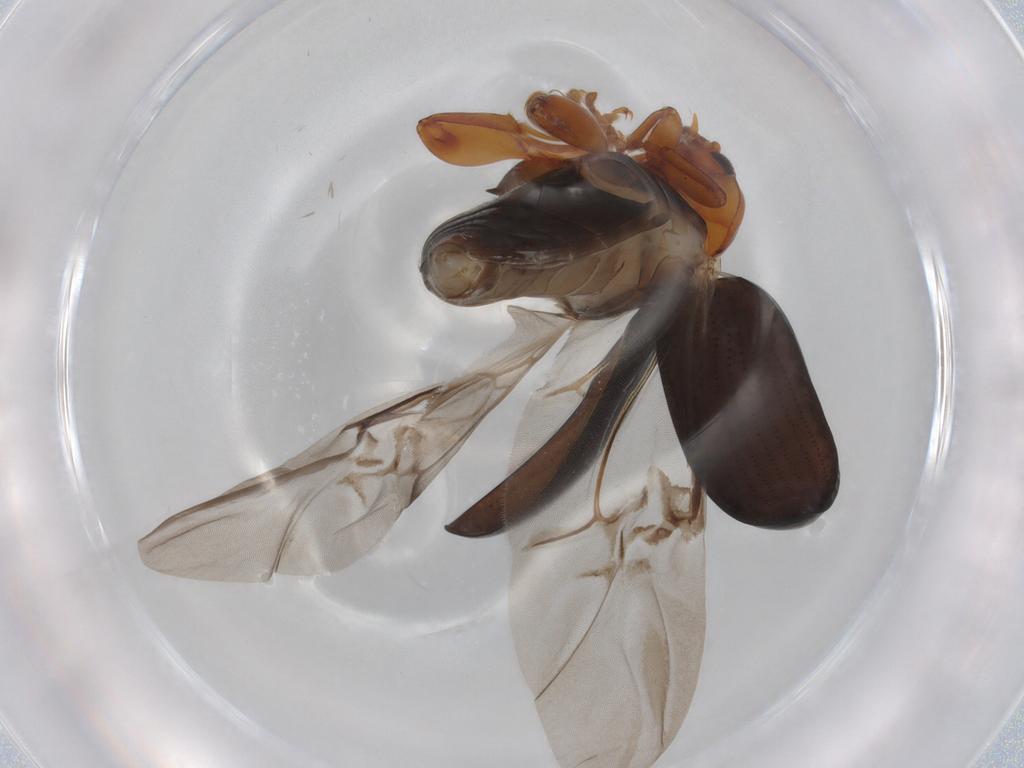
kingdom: Animalia
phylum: Arthropoda
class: Insecta
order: Coleoptera
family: Chrysomelidae
